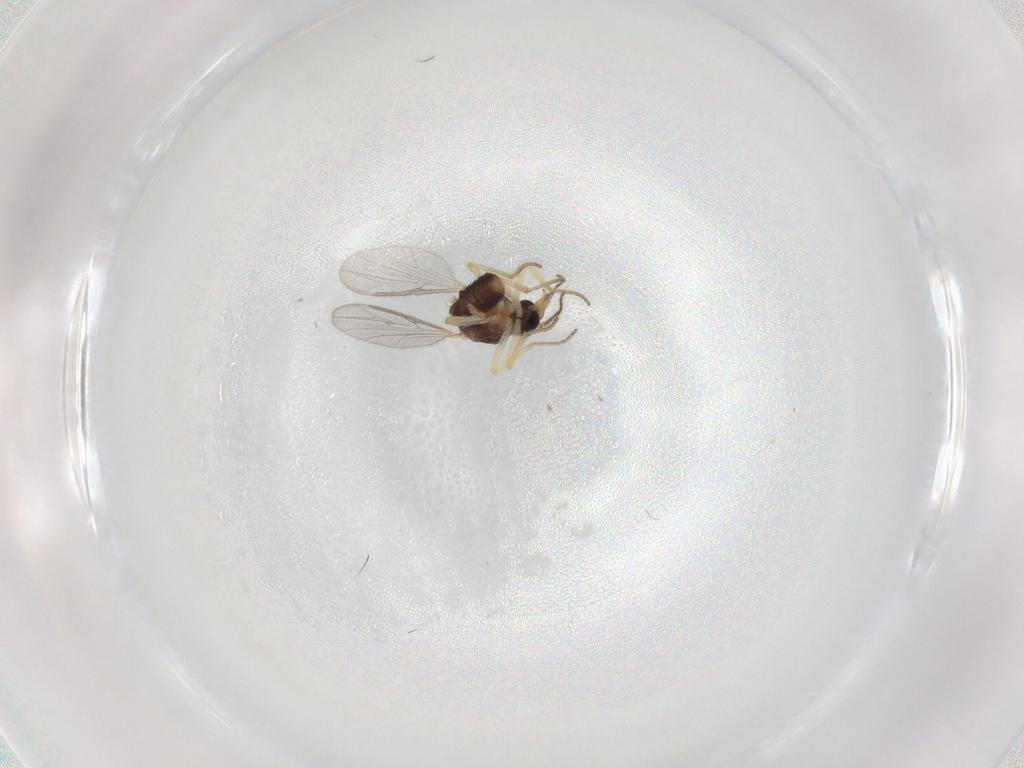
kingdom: Animalia
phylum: Arthropoda
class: Insecta
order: Diptera
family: Ceratopogonidae
